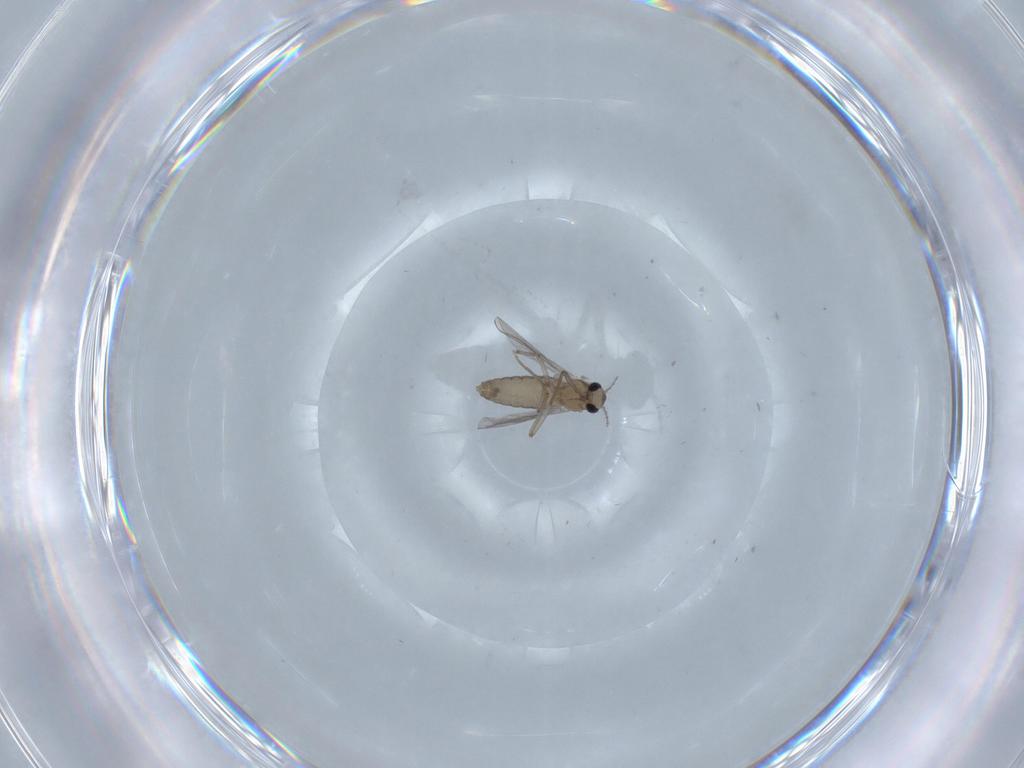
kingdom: Animalia
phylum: Arthropoda
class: Insecta
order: Diptera
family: Chironomidae
